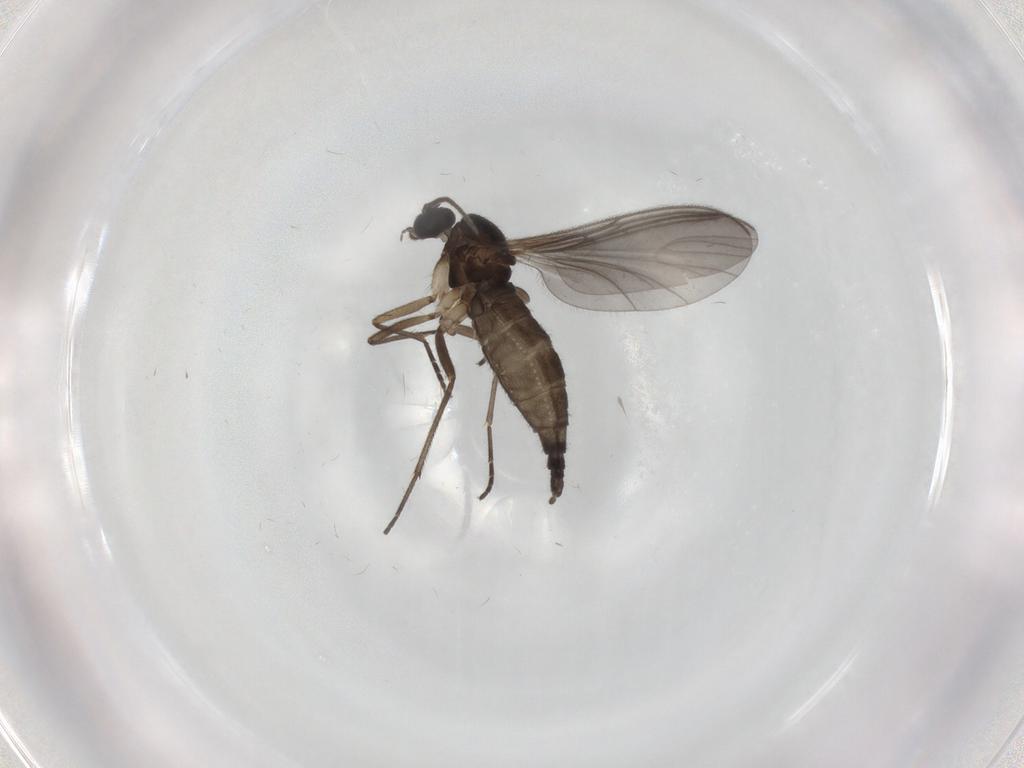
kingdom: Animalia
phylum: Arthropoda
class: Insecta
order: Diptera
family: Sciaridae
